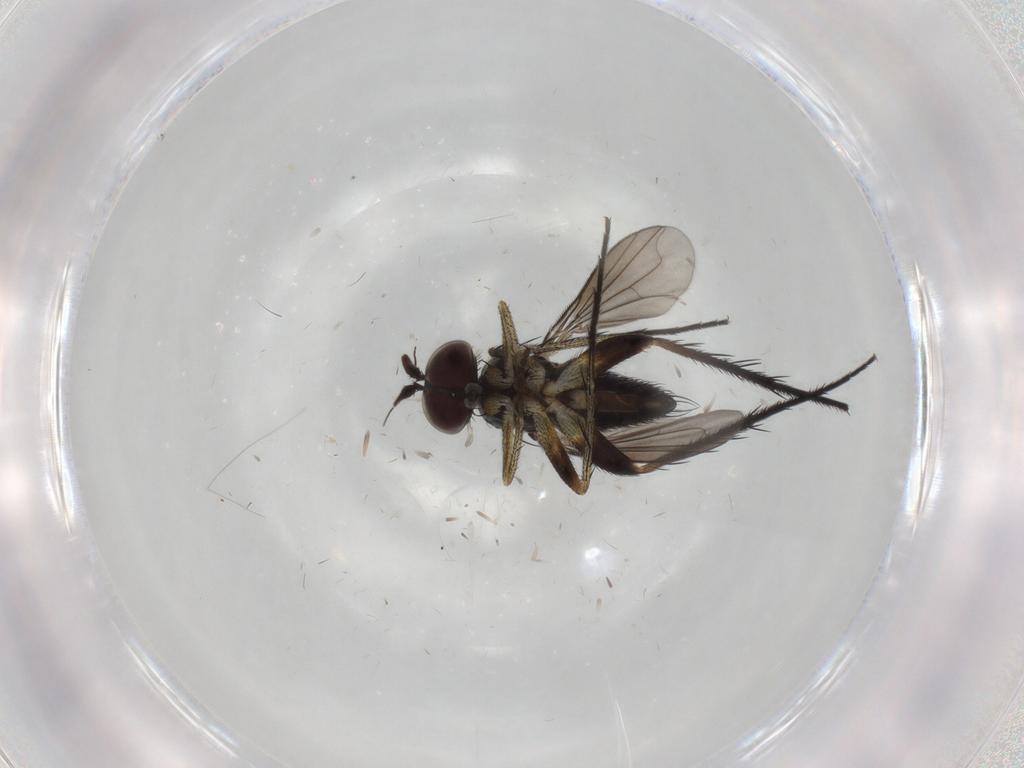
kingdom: Animalia
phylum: Arthropoda
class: Insecta
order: Diptera
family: Dolichopodidae
